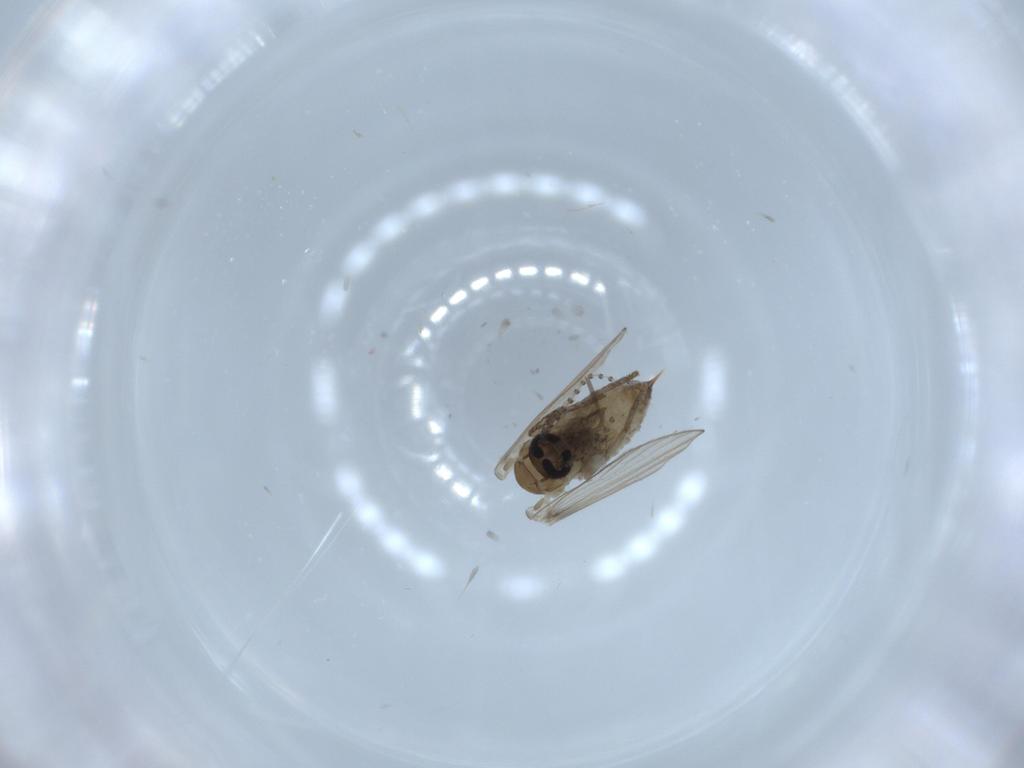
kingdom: Animalia
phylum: Arthropoda
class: Insecta
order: Diptera
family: Psychodidae
